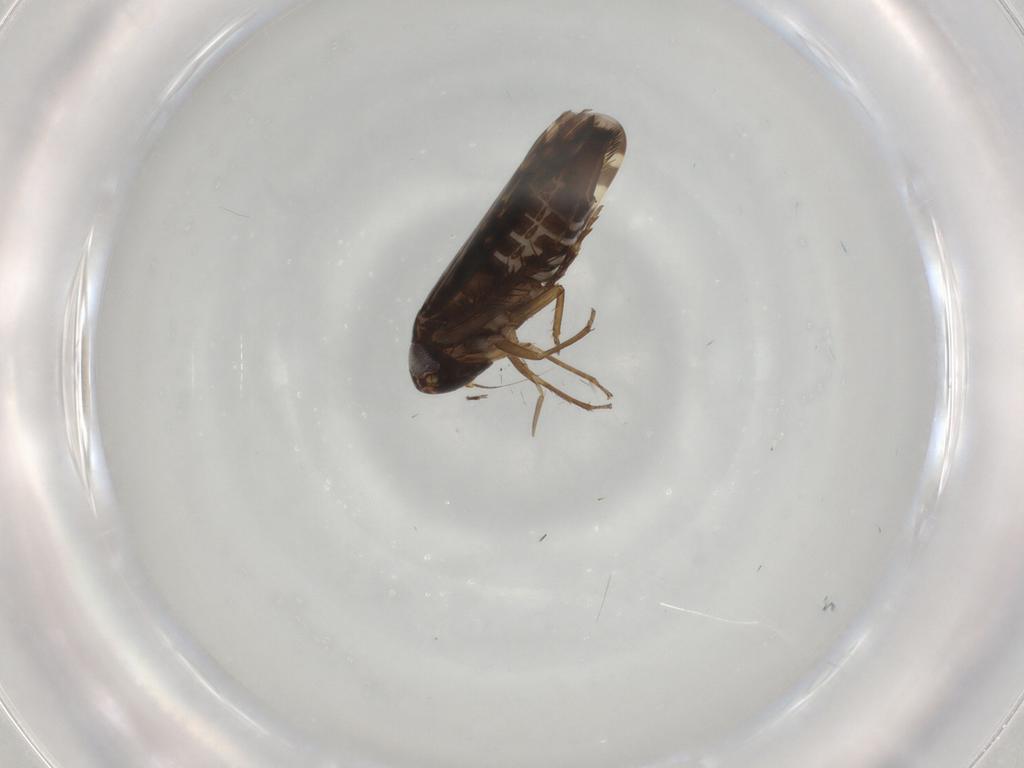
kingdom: Animalia
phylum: Arthropoda
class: Insecta
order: Hemiptera
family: Cicadellidae
